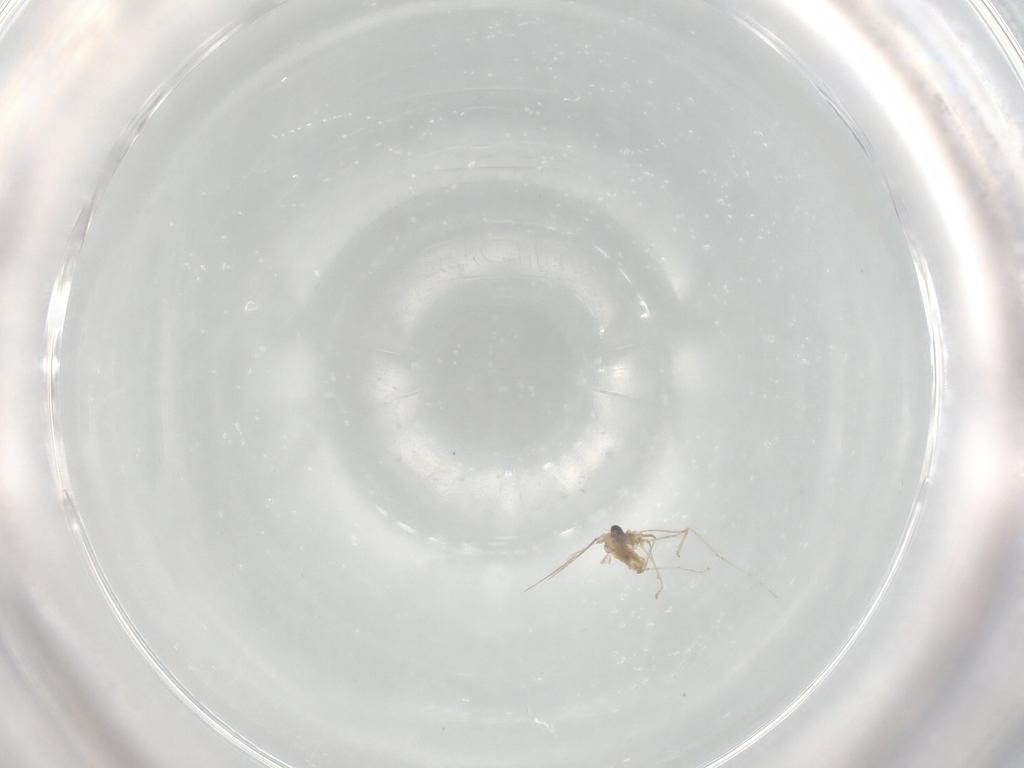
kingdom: Animalia
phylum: Arthropoda
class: Insecta
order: Diptera
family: Cecidomyiidae
